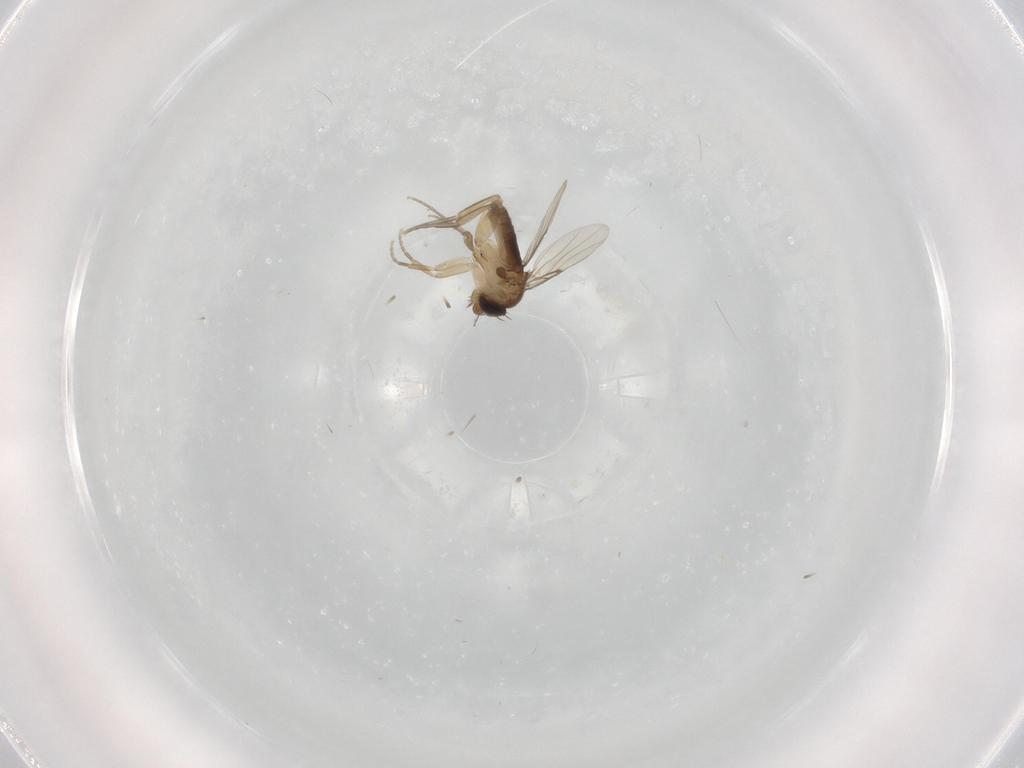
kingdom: Animalia
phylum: Arthropoda
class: Insecta
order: Diptera
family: Phoridae
